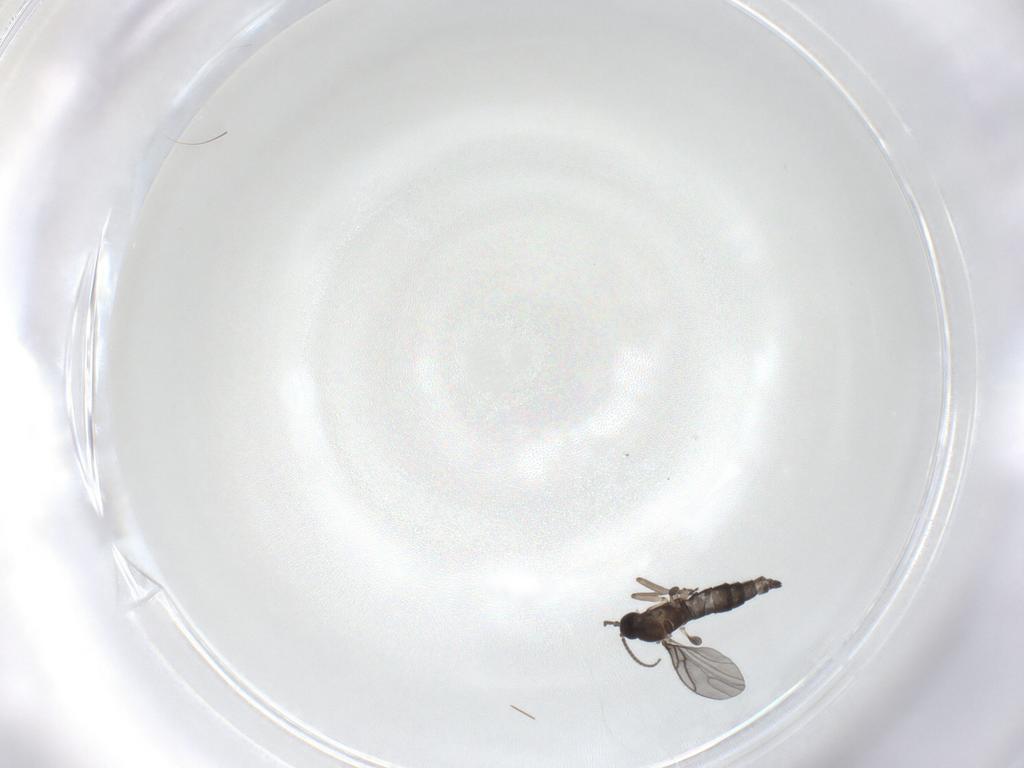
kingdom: Animalia
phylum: Arthropoda
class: Insecta
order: Diptera
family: Sciaridae
